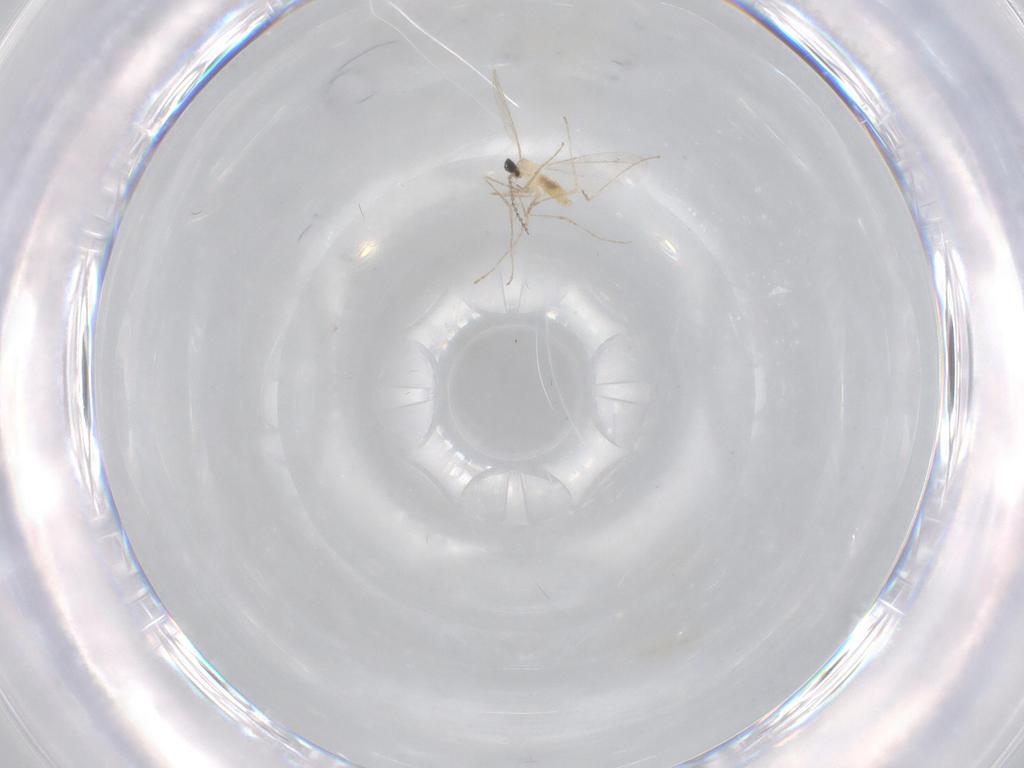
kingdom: Animalia
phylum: Arthropoda
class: Insecta
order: Diptera
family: Cecidomyiidae
